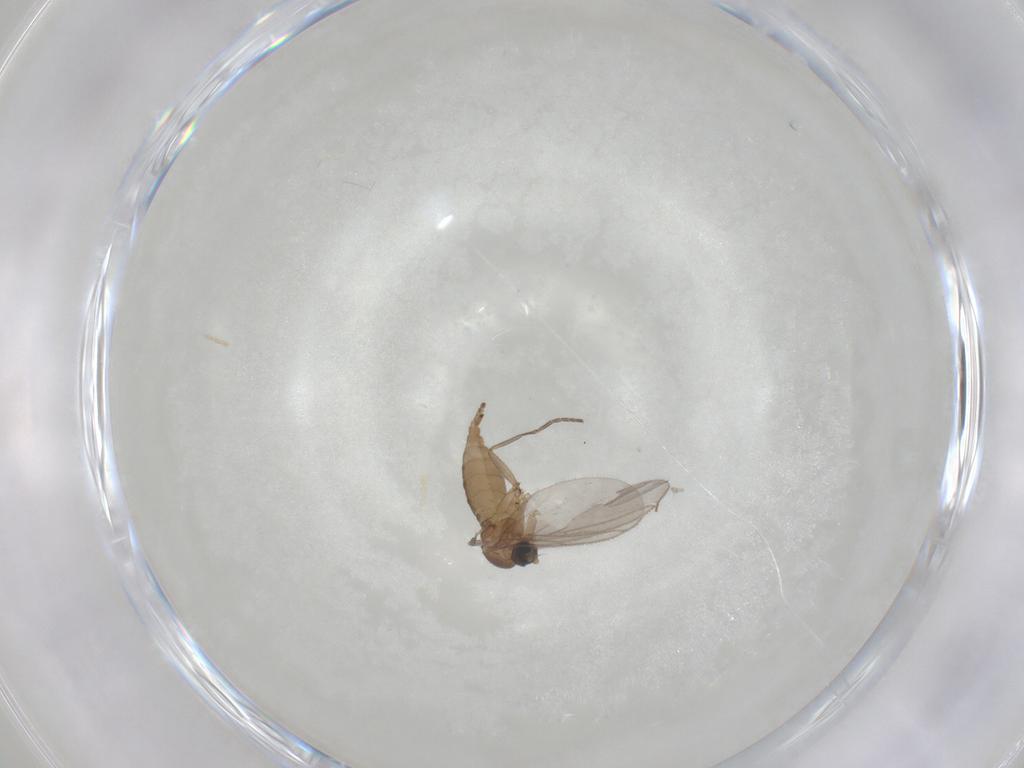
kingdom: Animalia
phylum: Arthropoda
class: Insecta
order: Diptera
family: Sciaridae
